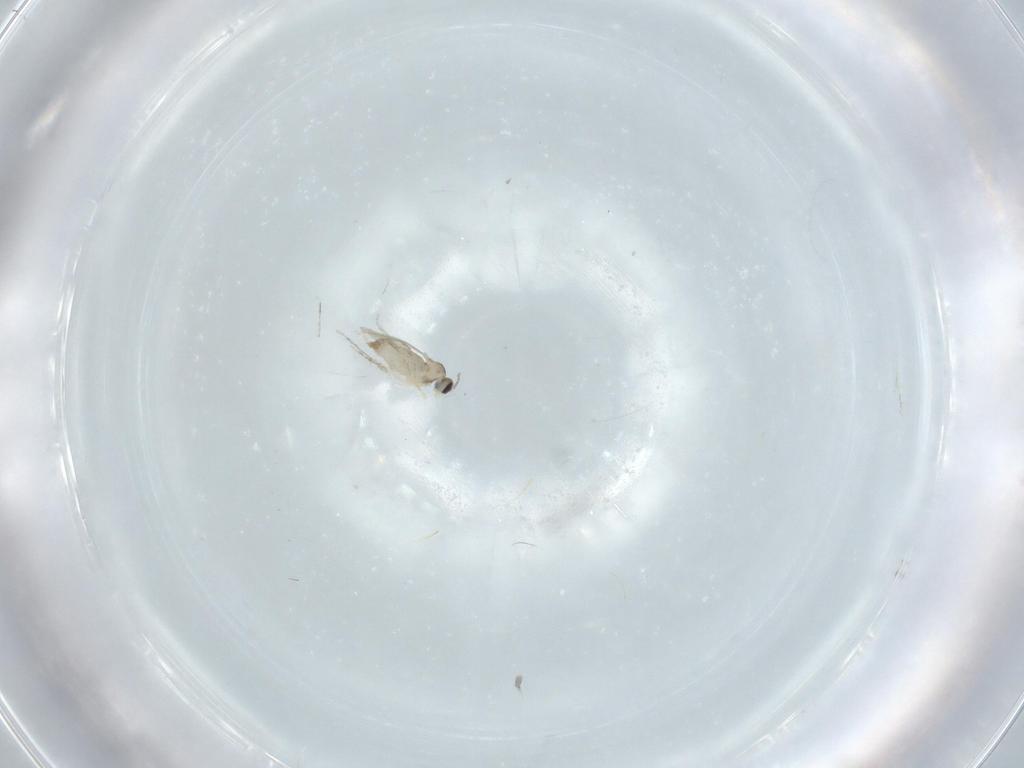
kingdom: Animalia
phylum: Arthropoda
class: Insecta
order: Diptera
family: Chironomidae
